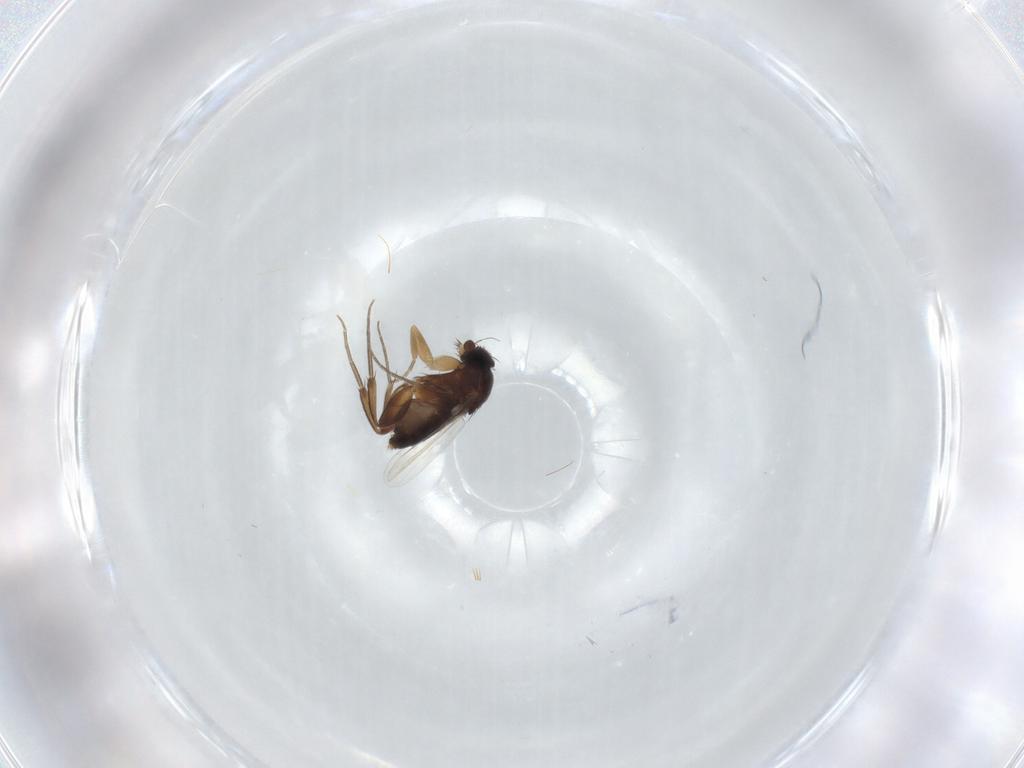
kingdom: Animalia
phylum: Arthropoda
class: Insecta
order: Diptera
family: Phoridae
